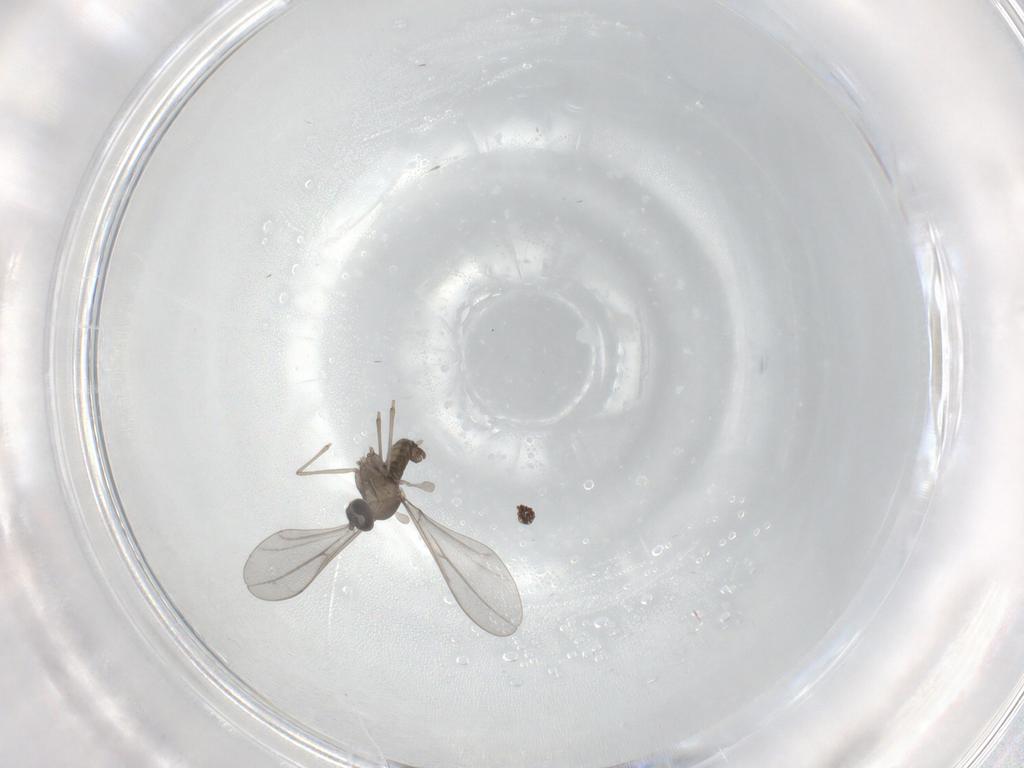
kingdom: Animalia
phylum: Arthropoda
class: Insecta
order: Diptera
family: Cecidomyiidae
